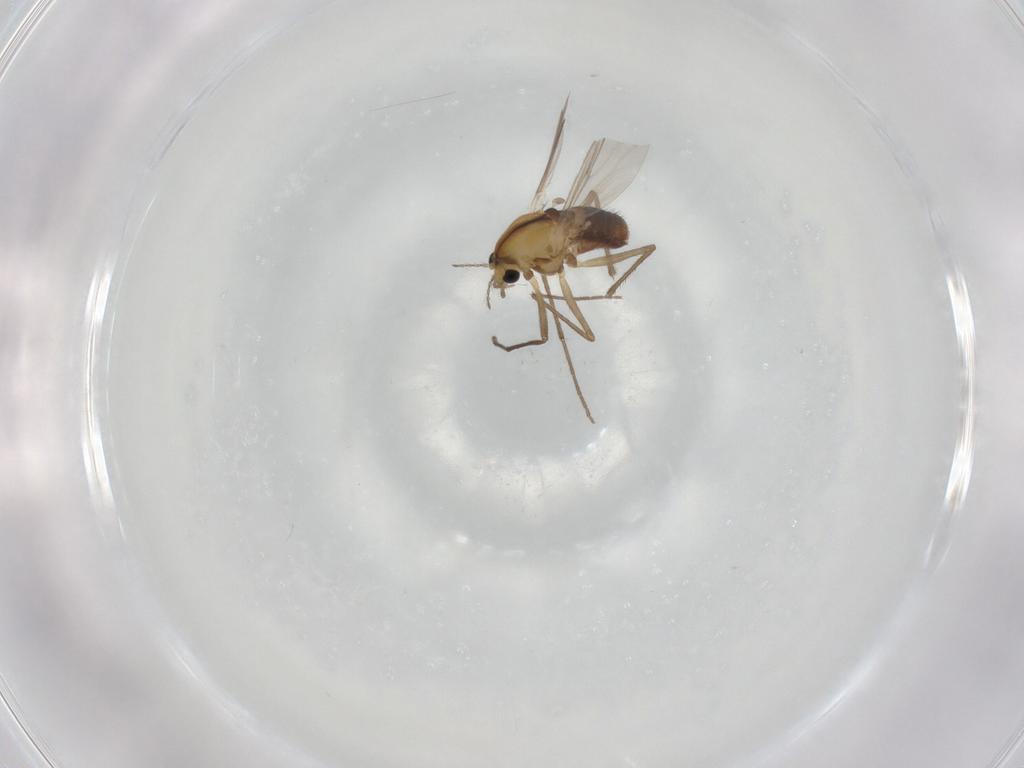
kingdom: Animalia
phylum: Arthropoda
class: Insecta
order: Diptera
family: Chironomidae
